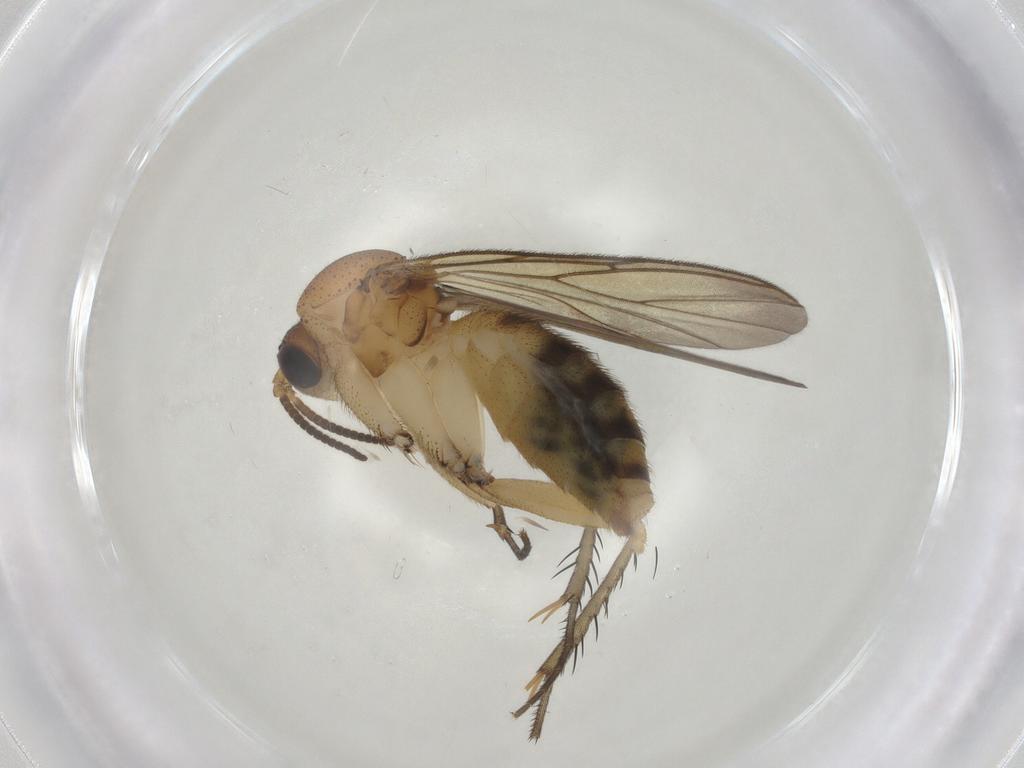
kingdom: Animalia
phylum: Arthropoda
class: Insecta
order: Diptera
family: Mycetophilidae
